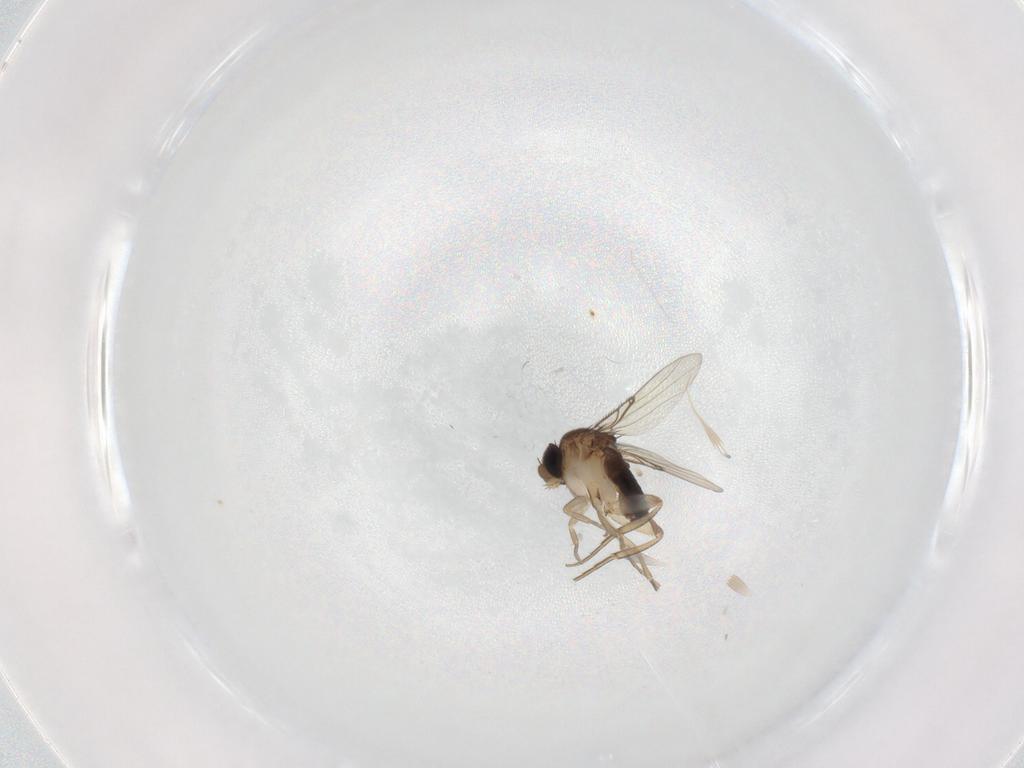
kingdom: Animalia
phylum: Arthropoda
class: Insecta
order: Diptera
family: Phoridae
